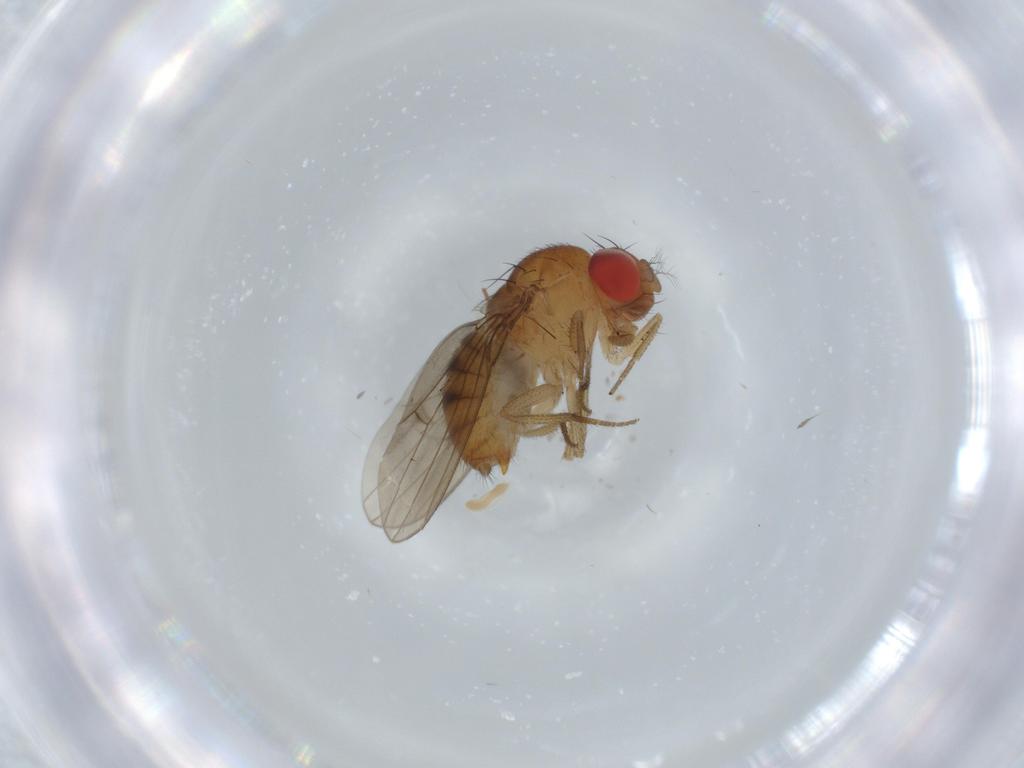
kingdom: Animalia
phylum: Arthropoda
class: Insecta
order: Diptera
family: Drosophilidae
